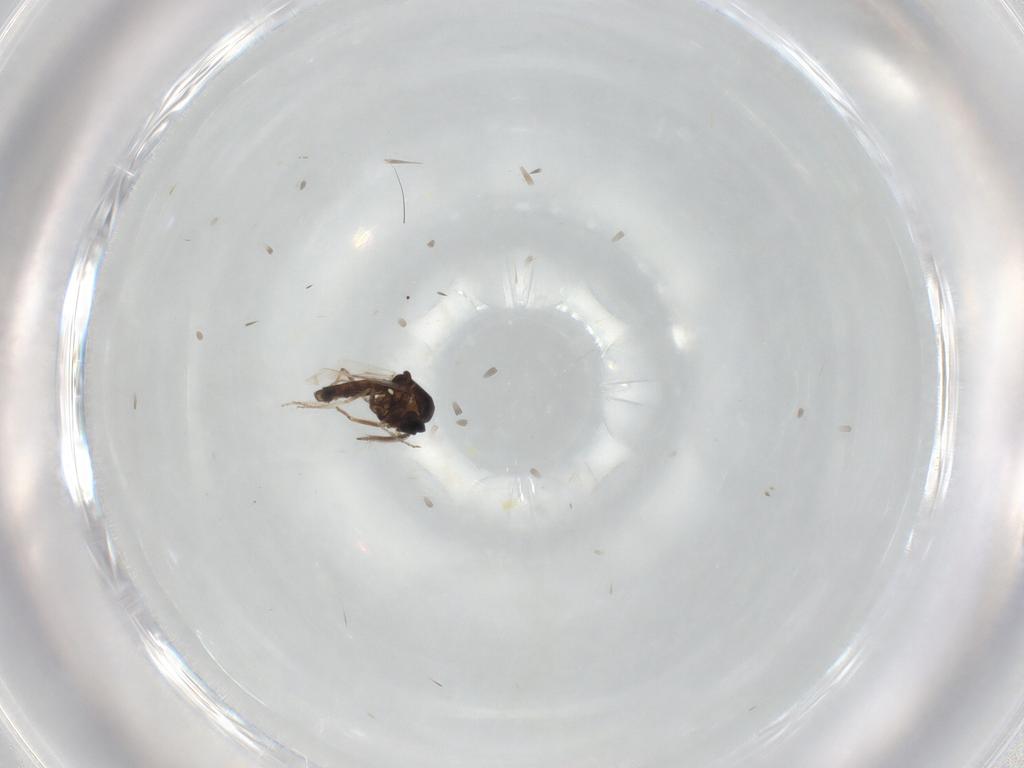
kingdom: Animalia
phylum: Arthropoda
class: Insecta
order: Diptera
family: Ceratopogonidae
